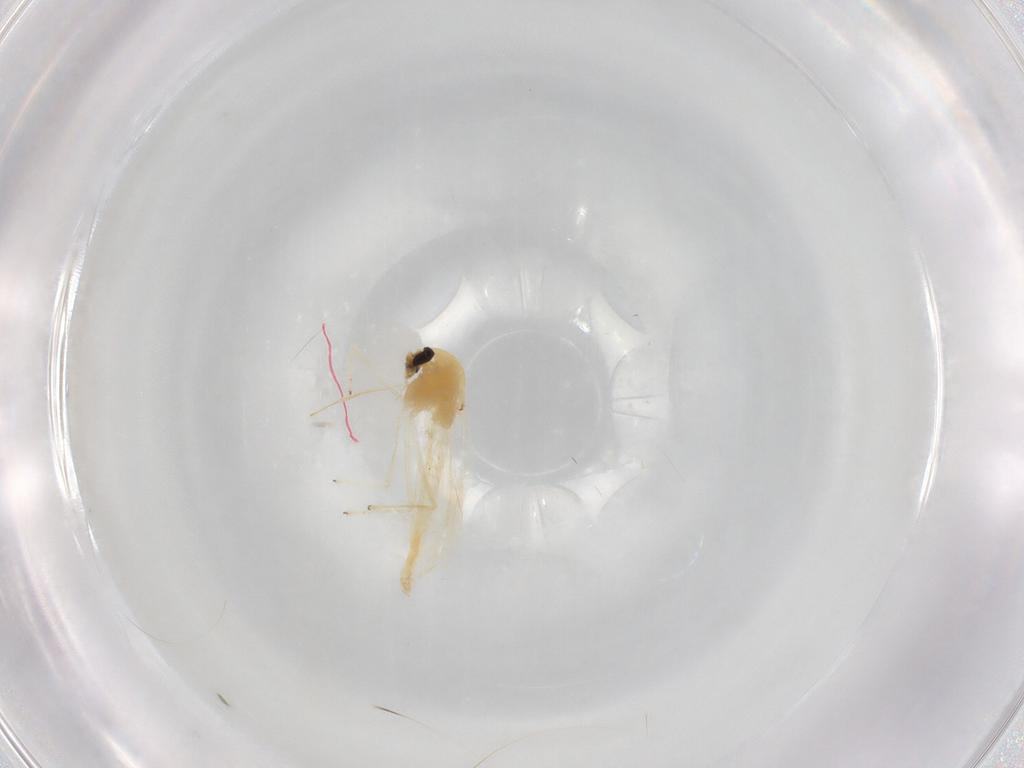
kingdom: Animalia
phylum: Arthropoda
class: Insecta
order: Diptera
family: Chironomidae
